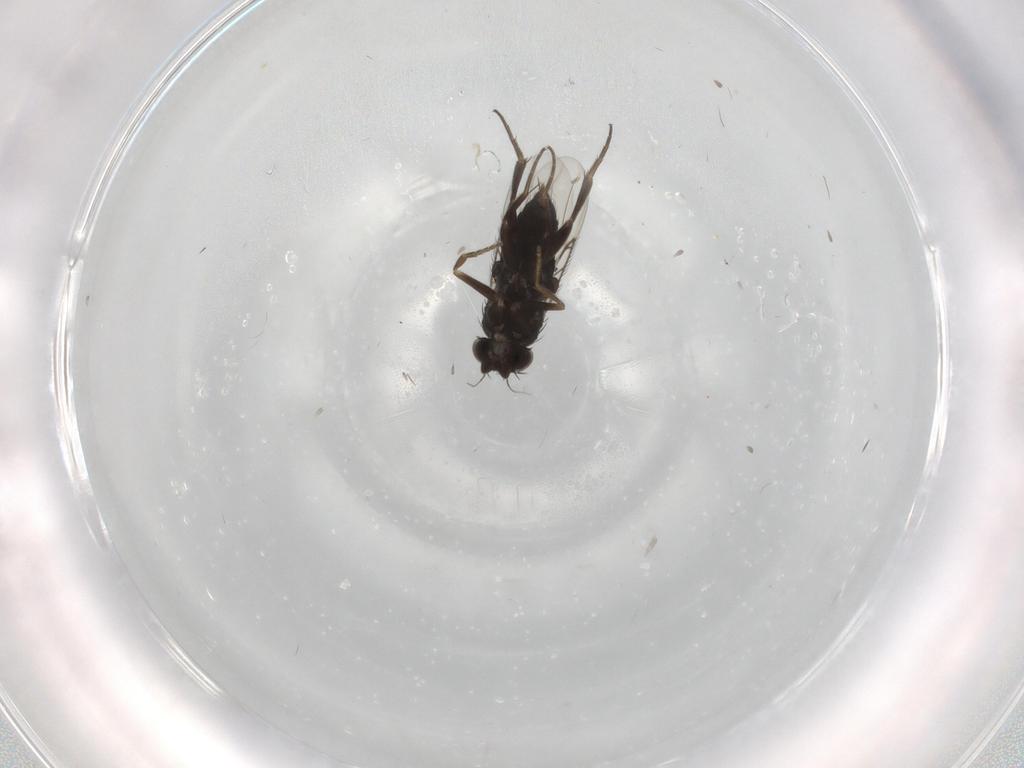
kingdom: Animalia
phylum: Arthropoda
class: Insecta
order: Diptera
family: Phoridae
